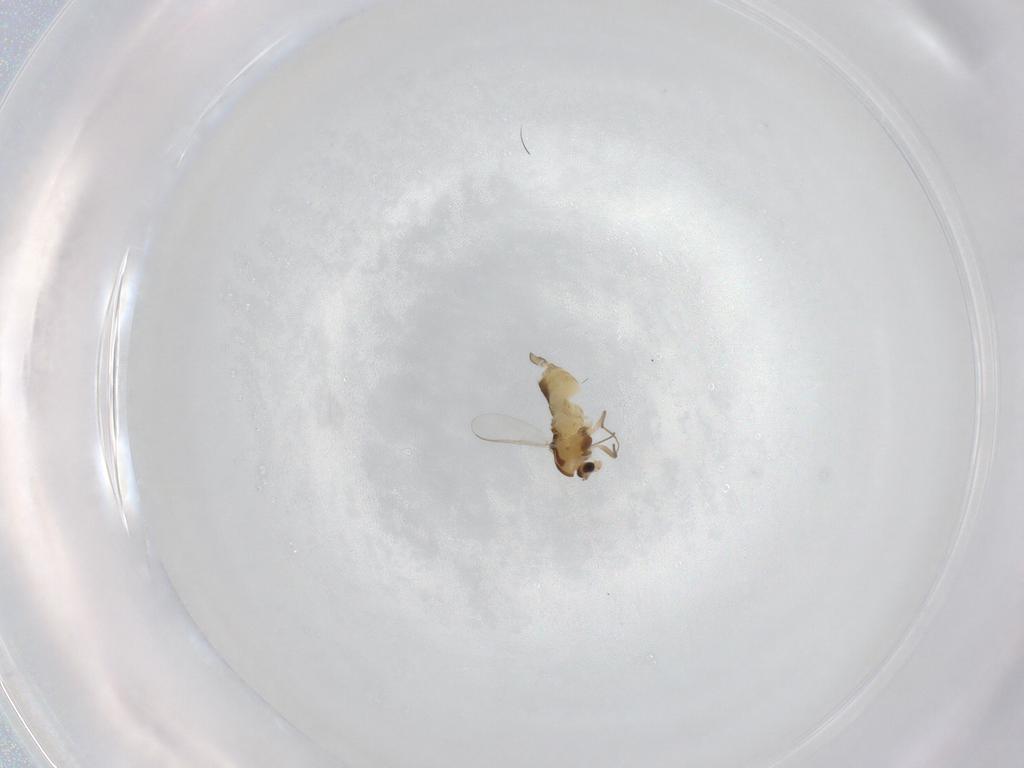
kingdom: Animalia
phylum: Arthropoda
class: Insecta
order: Diptera
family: Chironomidae
